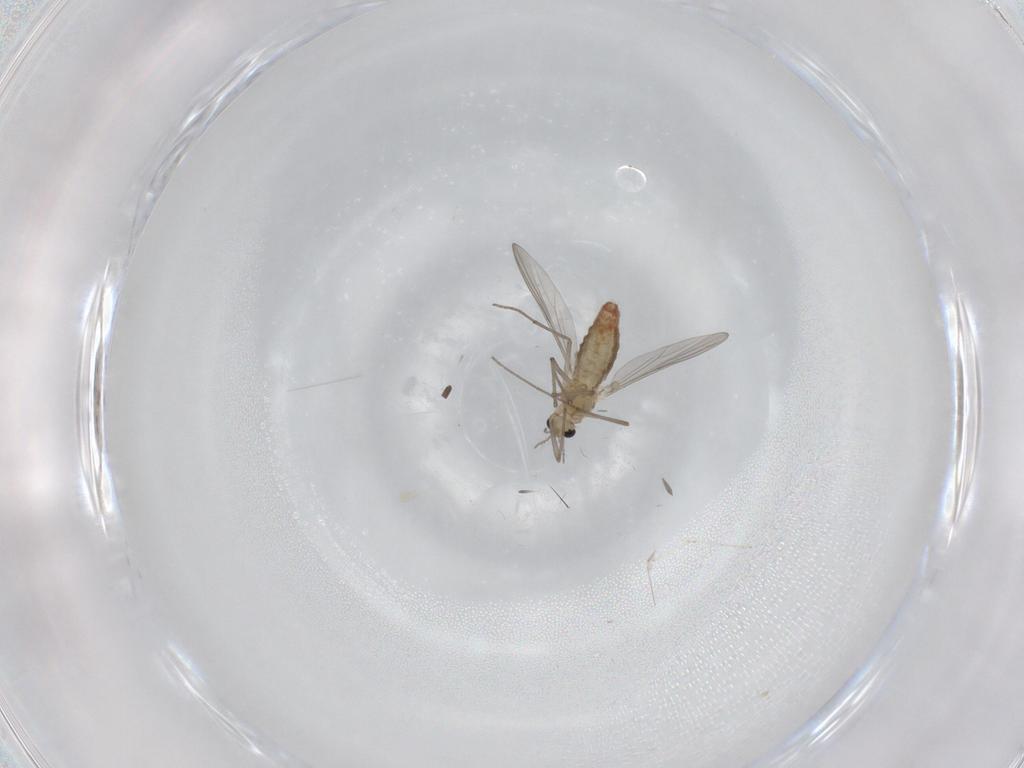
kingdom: Animalia
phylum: Arthropoda
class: Insecta
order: Diptera
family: Chironomidae
